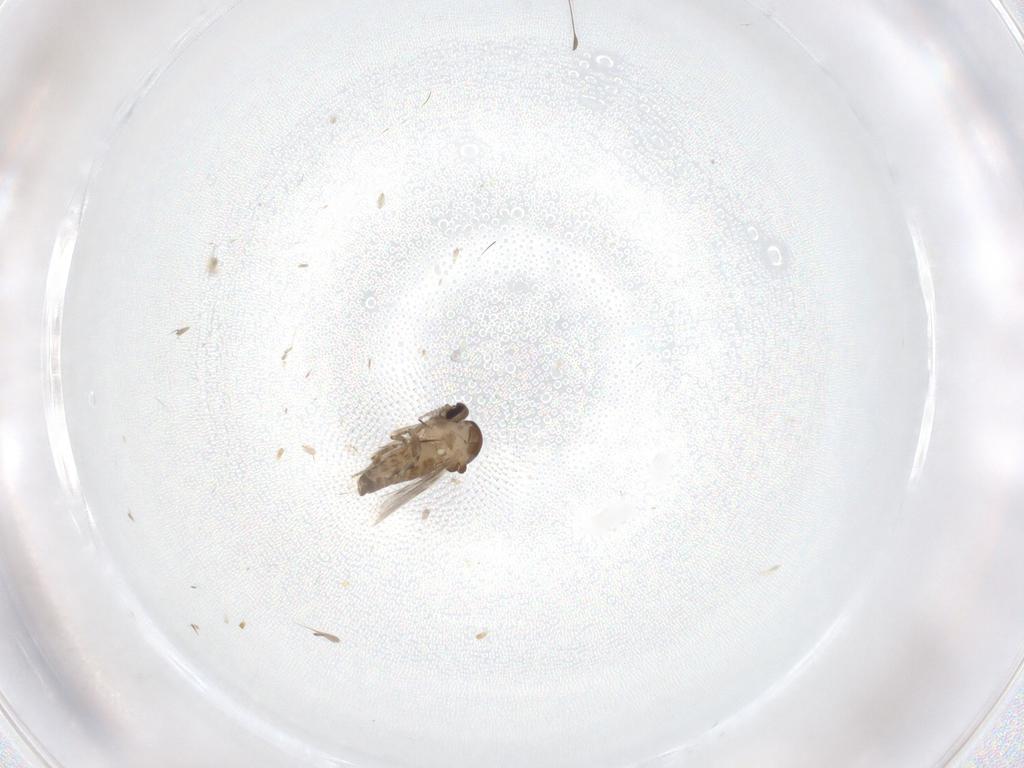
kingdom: Animalia
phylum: Arthropoda
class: Insecta
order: Diptera
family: Ceratopogonidae
